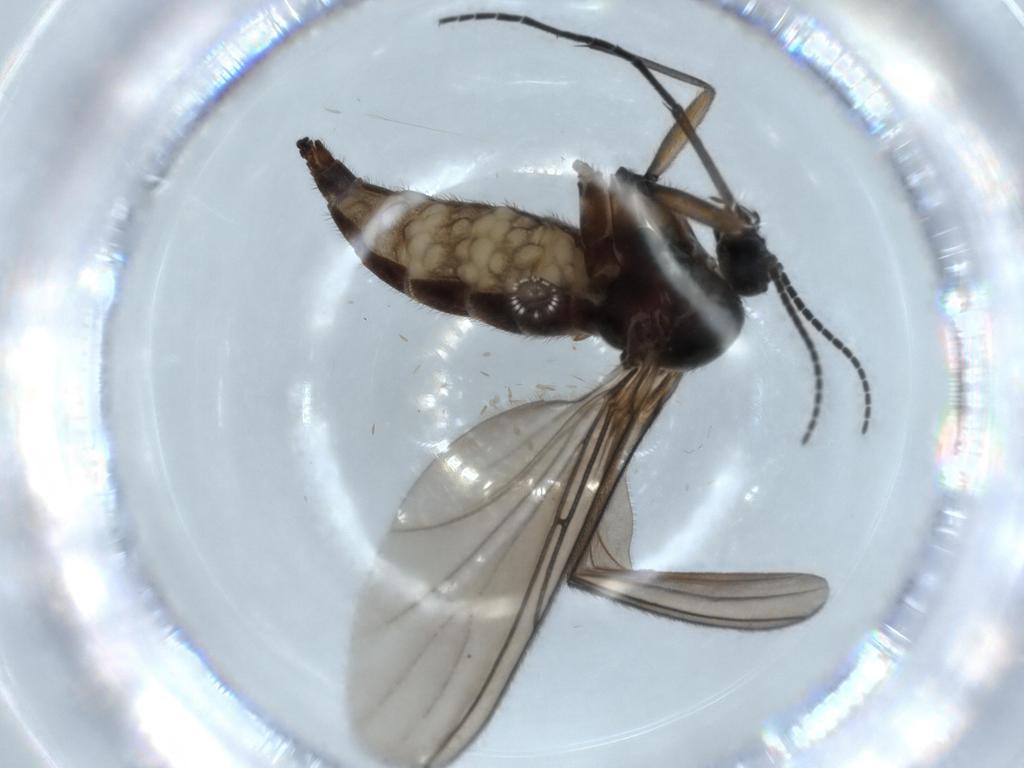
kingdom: Animalia
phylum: Arthropoda
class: Insecta
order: Diptera
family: Sciaridae
